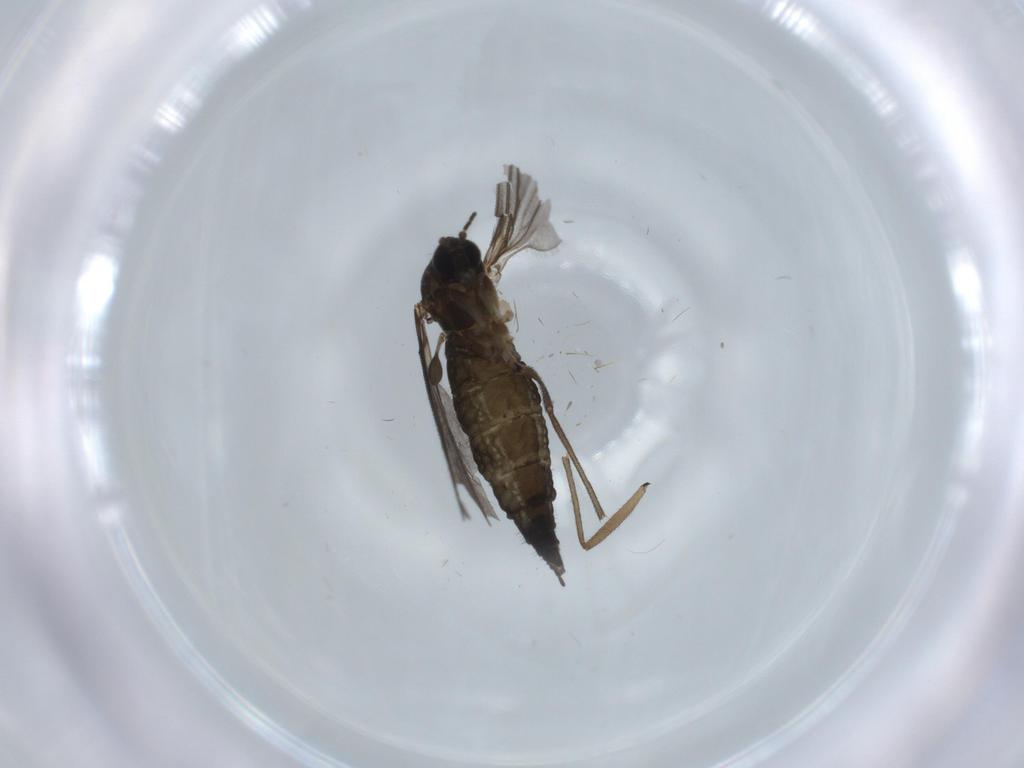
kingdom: Animalia
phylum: Arthropoda
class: Insecta
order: Diptera
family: Sciaridae
